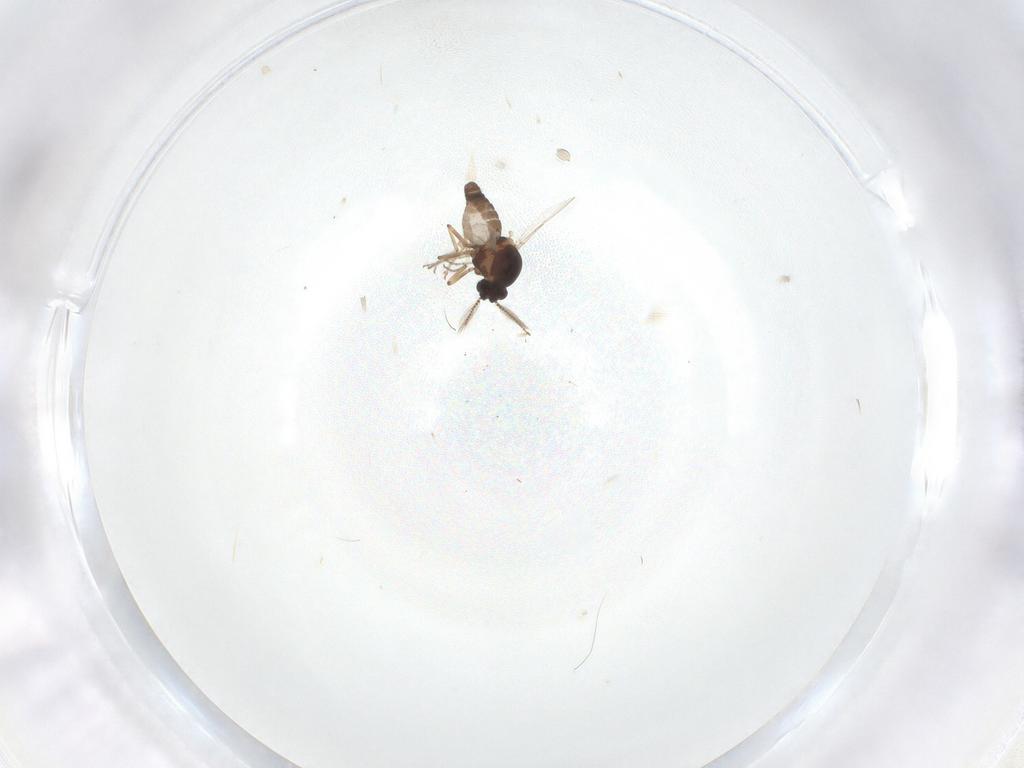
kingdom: Animalia
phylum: Arthropoda
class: Insecta
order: Diptera
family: Ceratopogonidae
